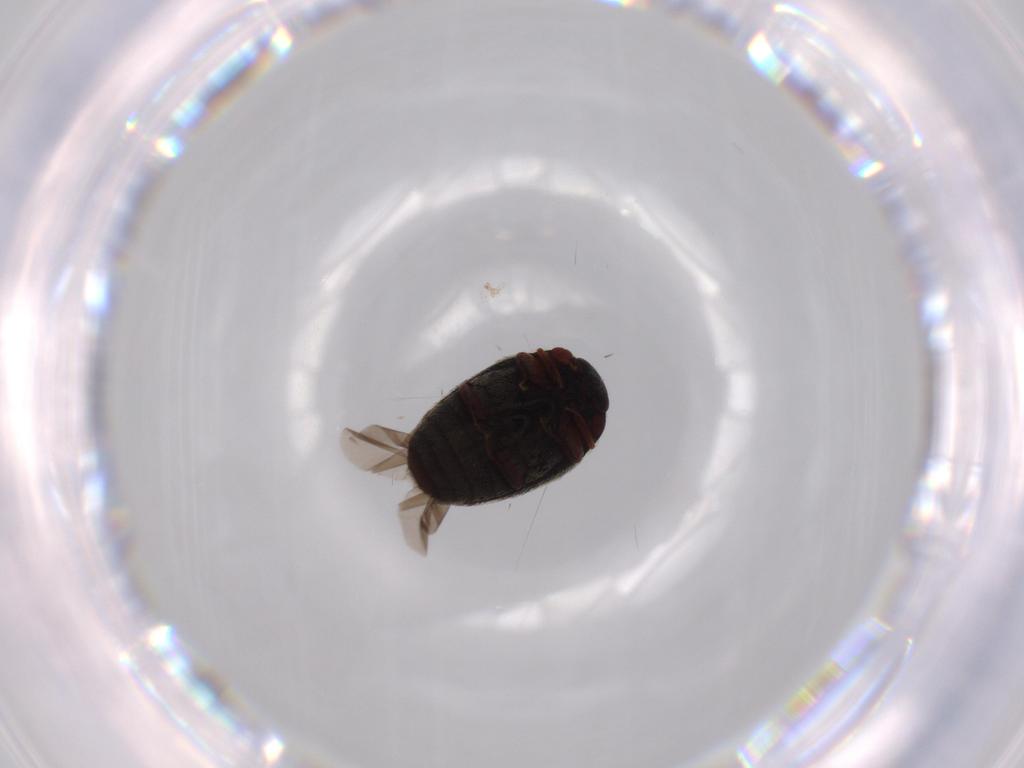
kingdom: Animalia
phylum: Arthropoda
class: Insecta
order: Coleoptera
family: Dermestidae
